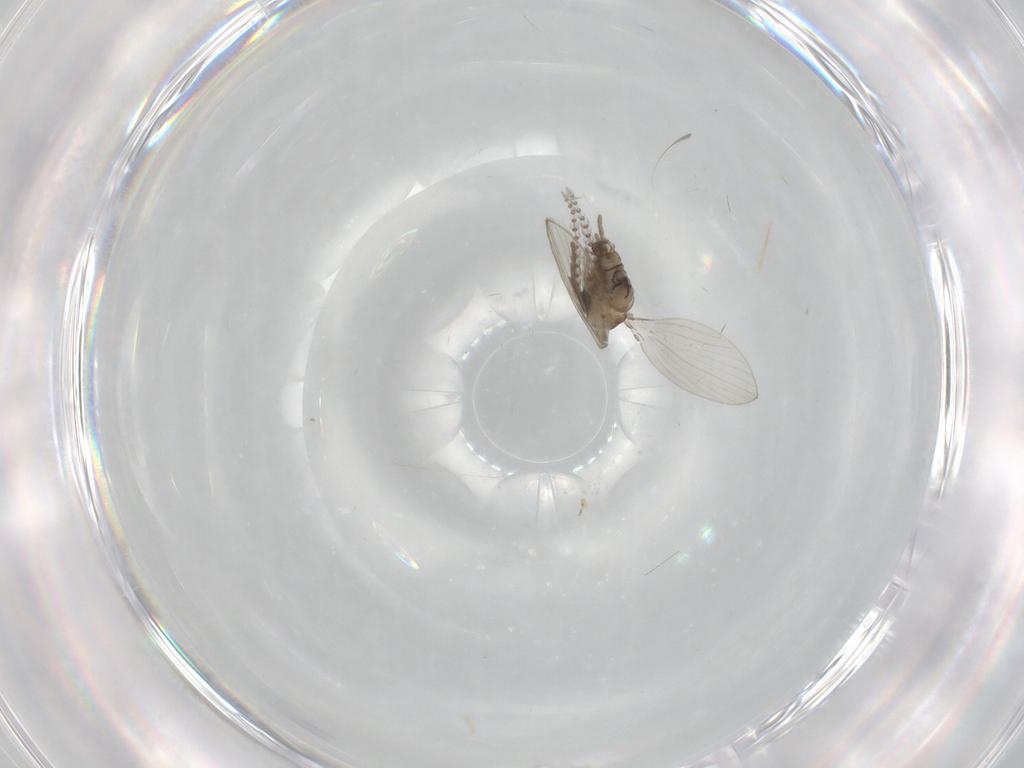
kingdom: Animalia
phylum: Arthropoda
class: Insecta
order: Diptera
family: Psychodidae
